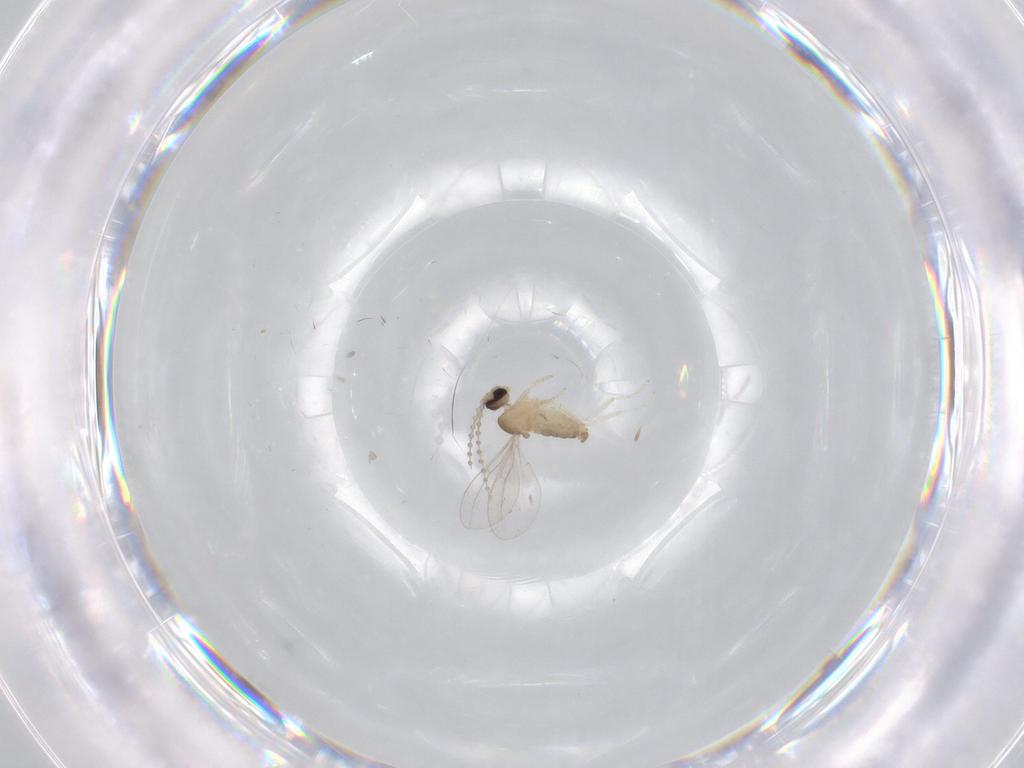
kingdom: Animalia
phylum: Arthropoda
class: Insecta
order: Diptera
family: Cecidomyiidae
